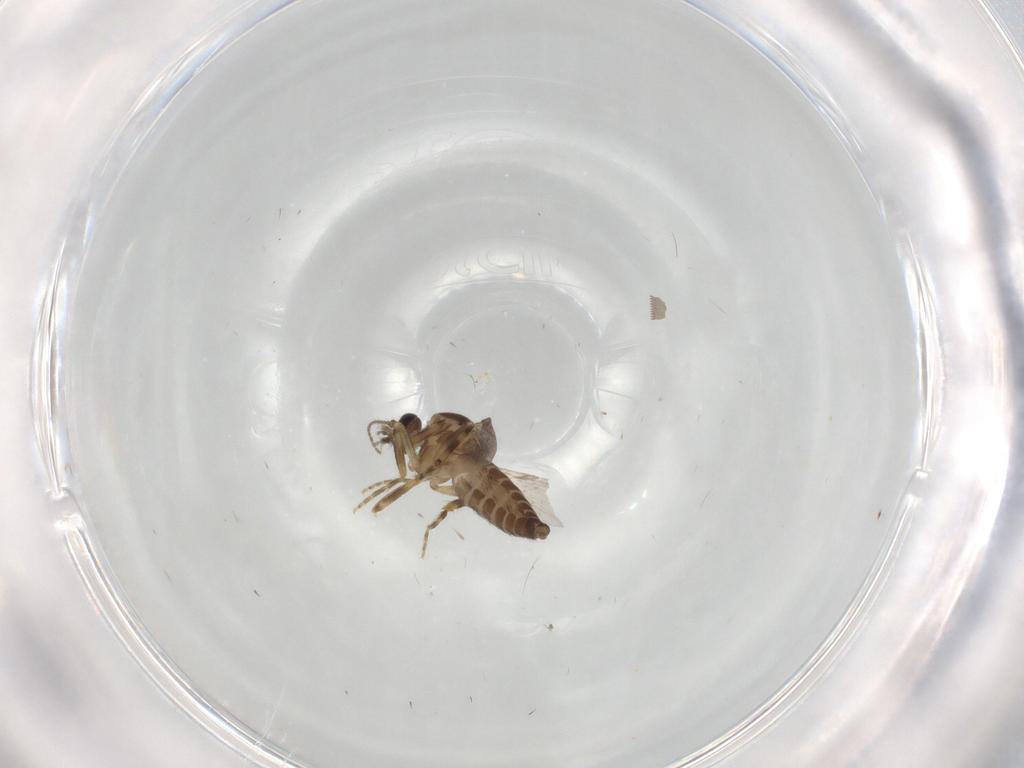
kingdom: Animalia
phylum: Arthropoda
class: Insecta
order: Diptera
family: Ceratopogonidae
